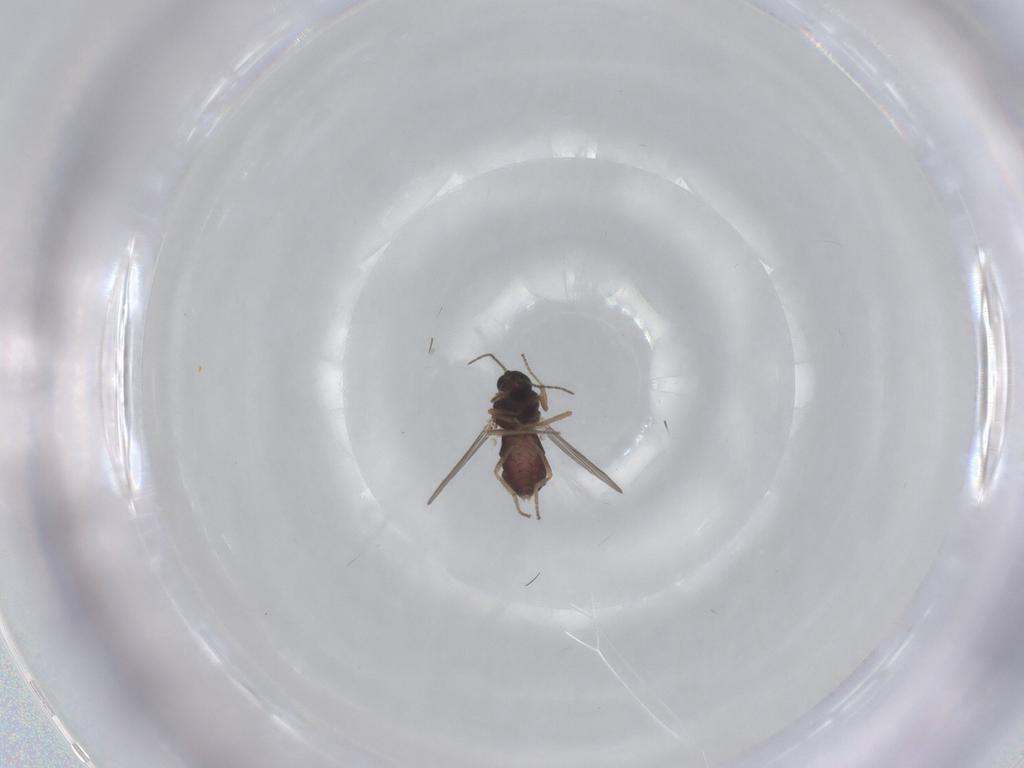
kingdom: Animalia
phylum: Arthropoda
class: Insecta
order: Diptera
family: Ceratopogonidae
